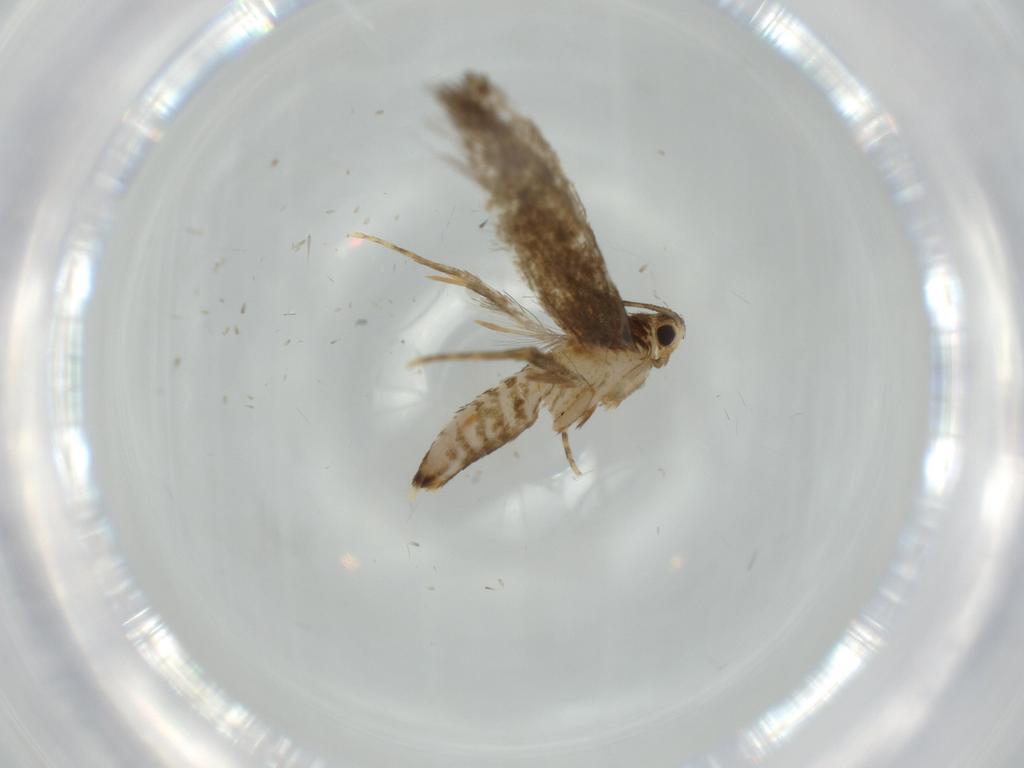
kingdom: Animalia
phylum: Arthropoda
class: Insecta
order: Lepidoptera
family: Tineidae
